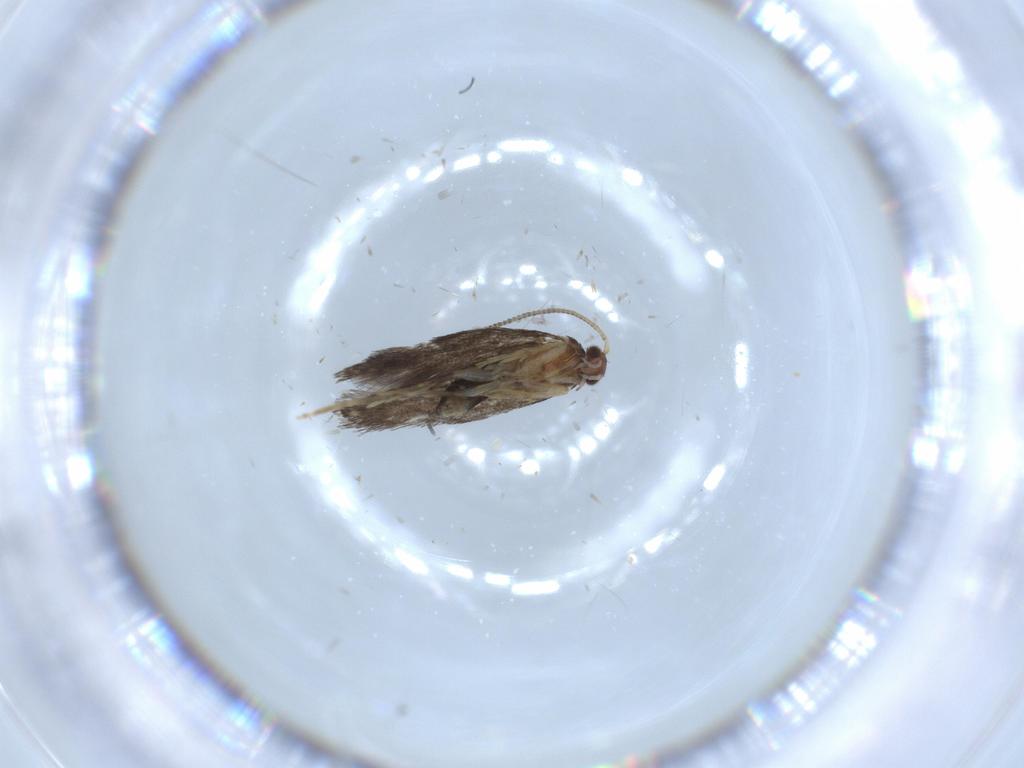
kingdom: Animalia
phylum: Arthropoda
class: Insecta
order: Lepidoptera
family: Tineidae
